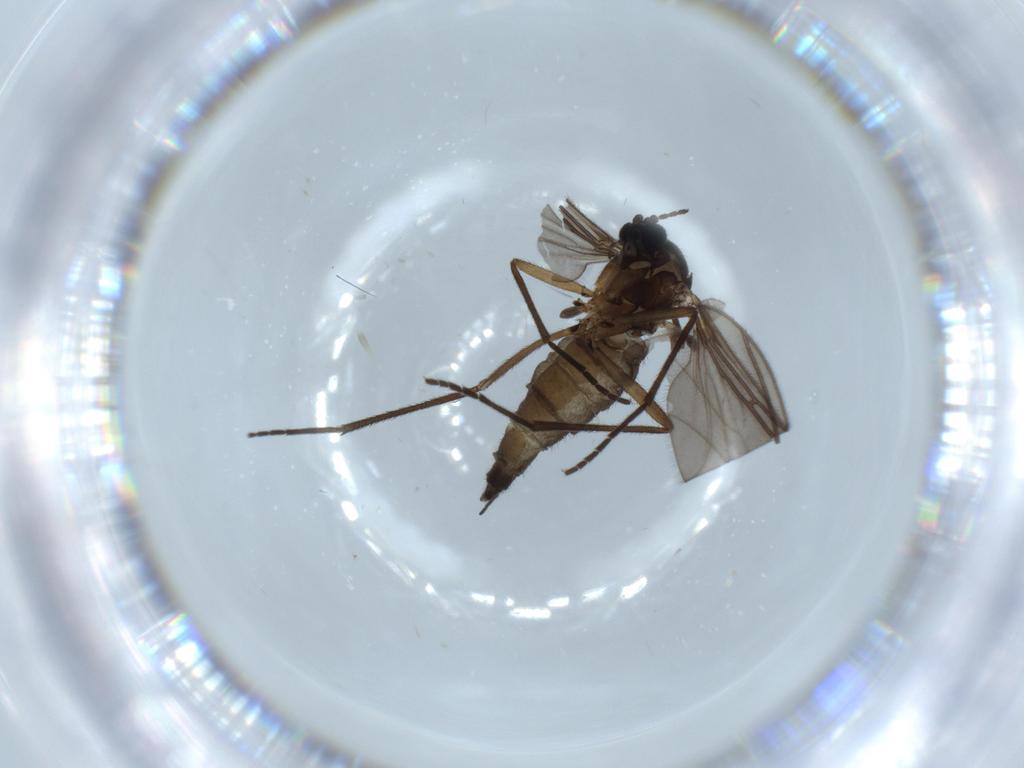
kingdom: Animalia
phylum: Arthropoda
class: Insecta
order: Diptera
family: Sciaridae
